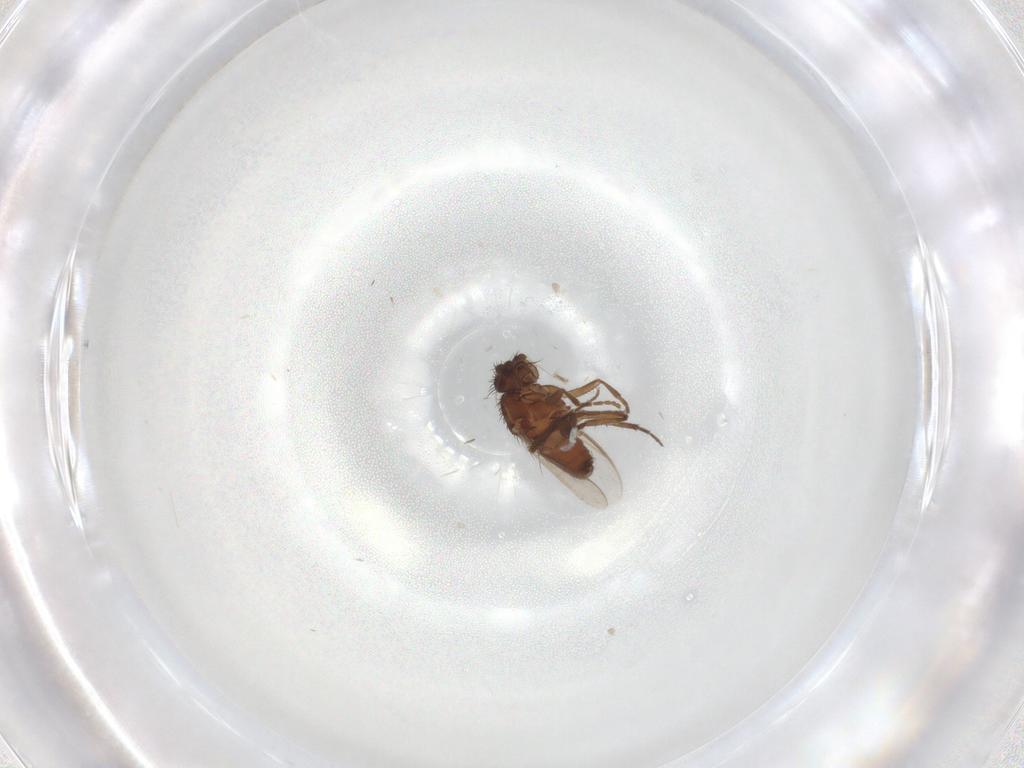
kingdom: Animalia
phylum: Arthropoda
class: Insecta
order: Diptera
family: Sphaeroceridae
